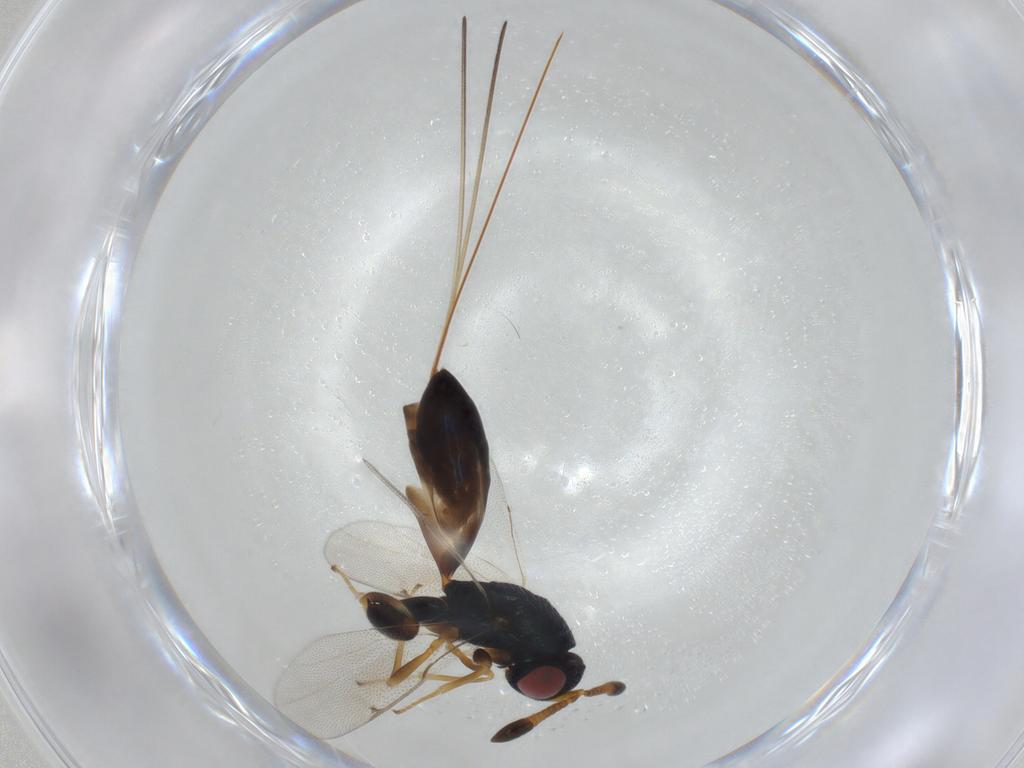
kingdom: Animalia
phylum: Arthropoda
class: Insecta
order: Hymenoptera
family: Torymidae
